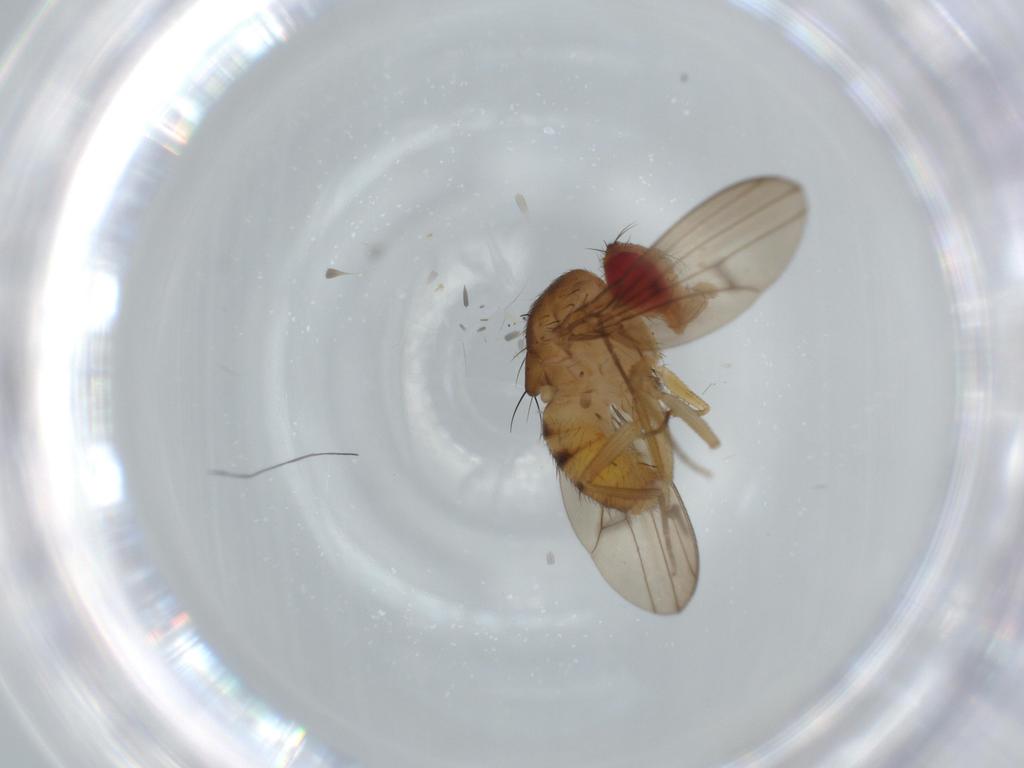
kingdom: Animalia
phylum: Arthropoda
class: Insecta
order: Diptera
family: Drosophilidae
